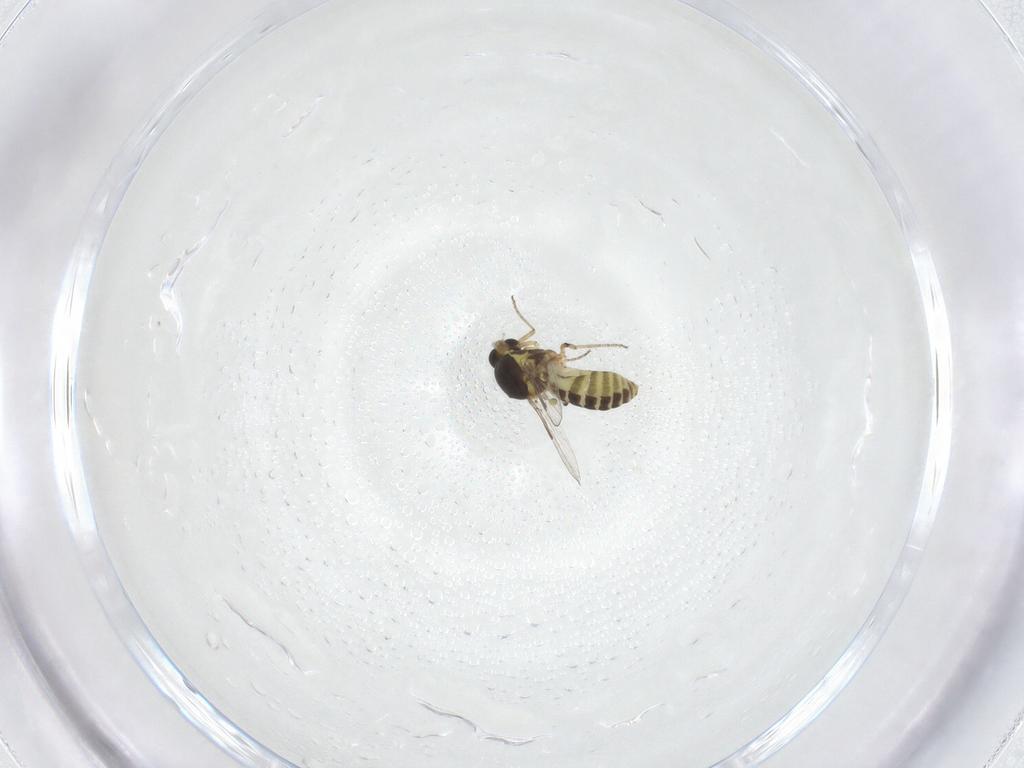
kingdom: Animalia
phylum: Arthropoda
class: Insecta
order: Diptera
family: Ceratopogonidae
